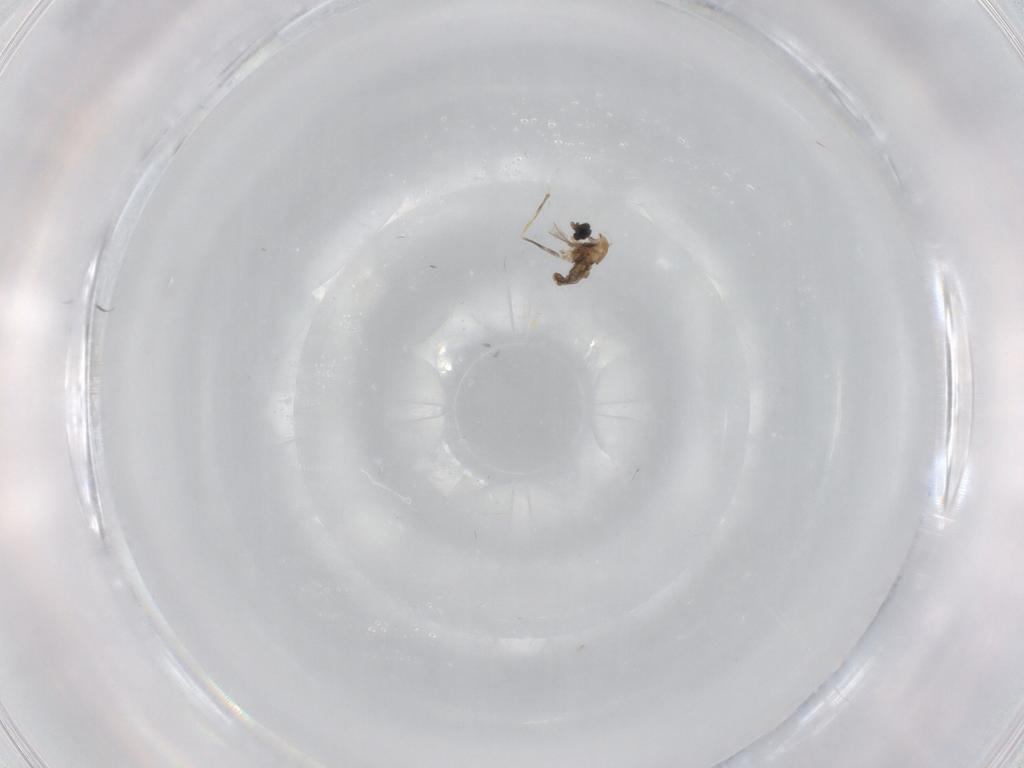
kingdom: Animalia
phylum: Arthropoda
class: Insecta
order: Diptera
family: Cecidomyiidae
